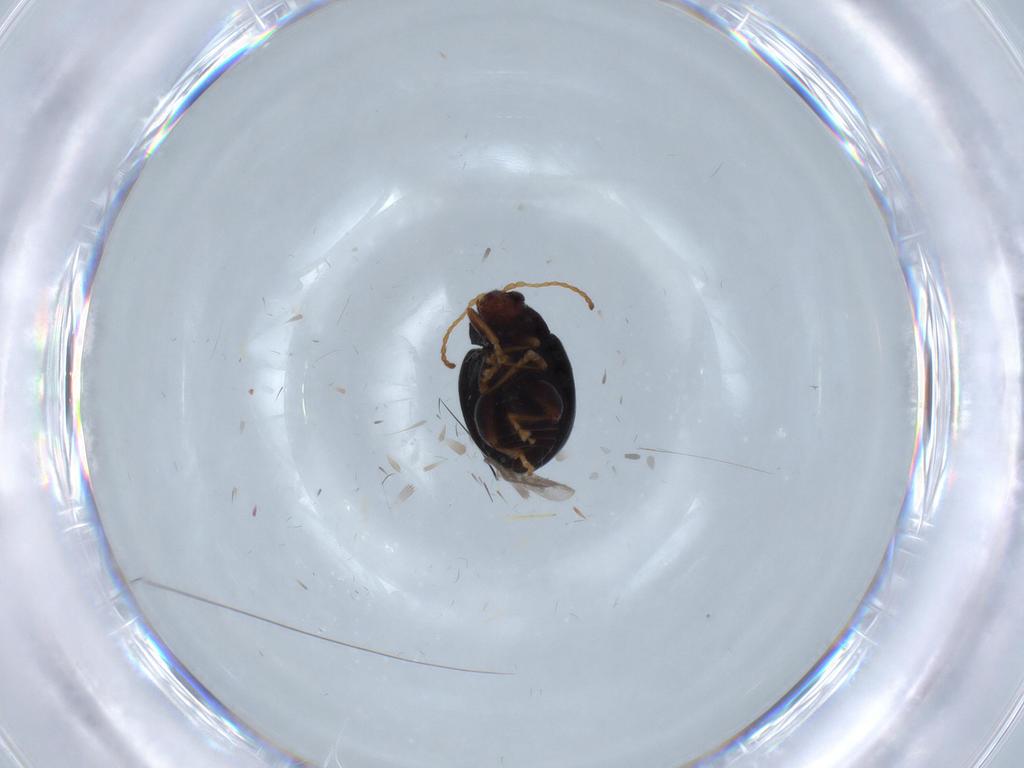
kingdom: Animalia
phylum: Arthropoda
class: Insecta
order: Coleoptera
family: Chrysomelidae
